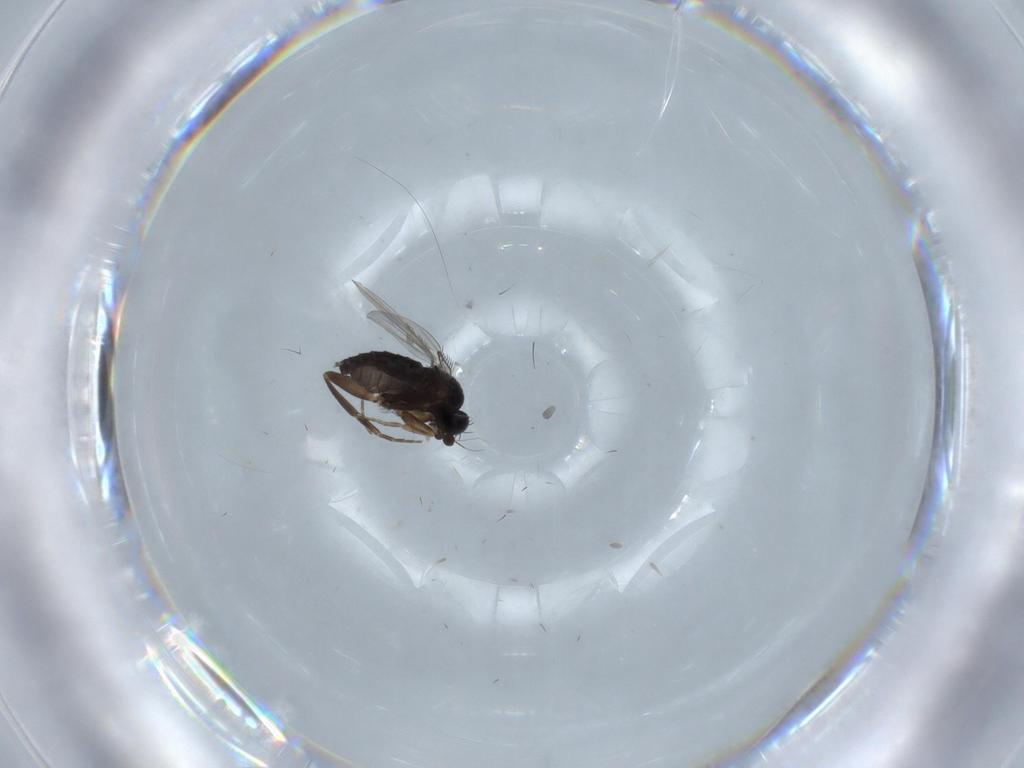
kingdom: Animalia
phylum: Arthropoda
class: Insecta
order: Diptera
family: Phoridae
